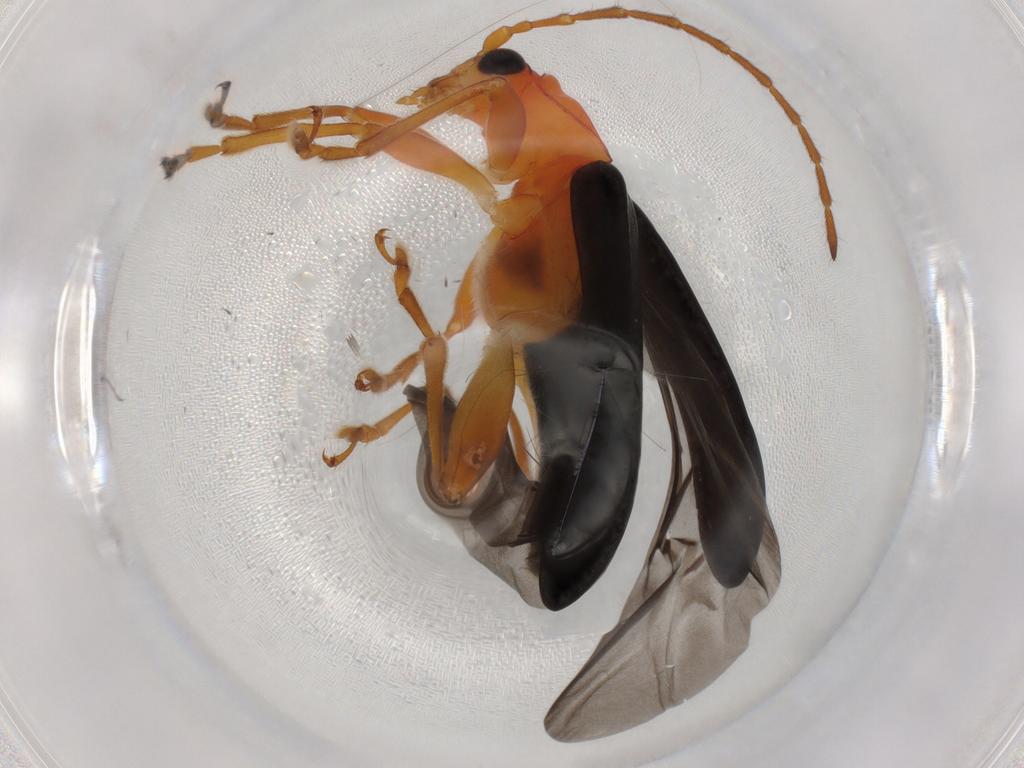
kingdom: Animalia
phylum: Arthropoda
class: Insecta
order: Coleoptera
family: Chrysomelidae
